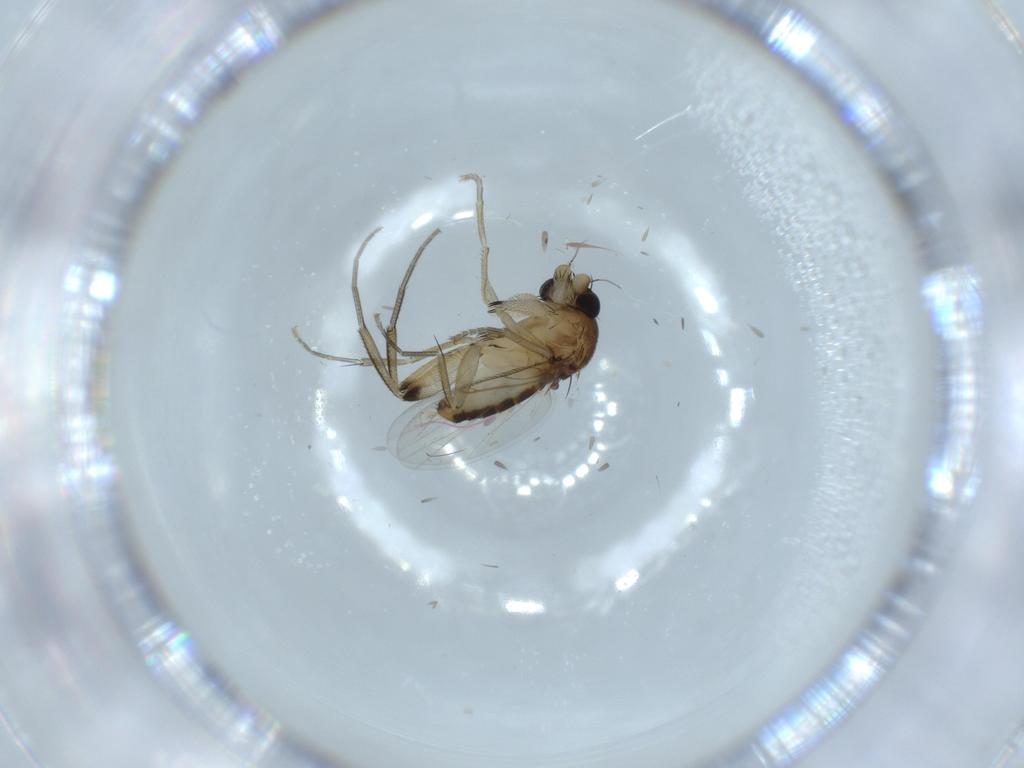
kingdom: Animalia
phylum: Arthropoda
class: Insecta
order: Diptera
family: Phoridae
